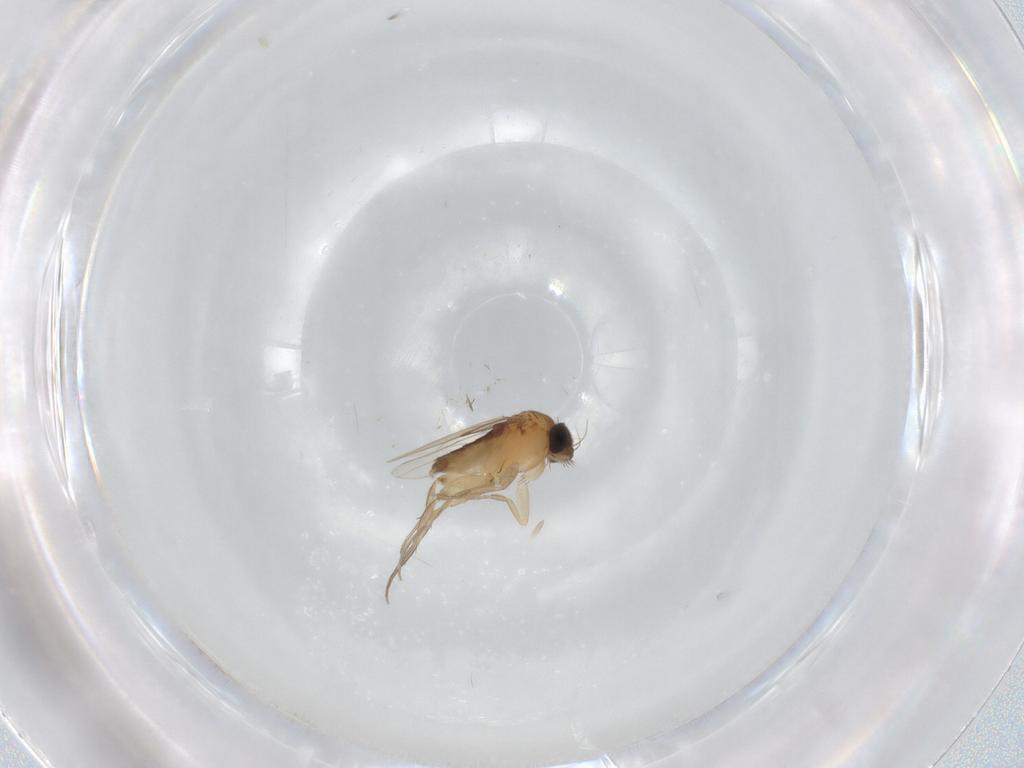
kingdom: Animalia
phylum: Arthropoda
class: Insecta
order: Diptera
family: Phoridae
